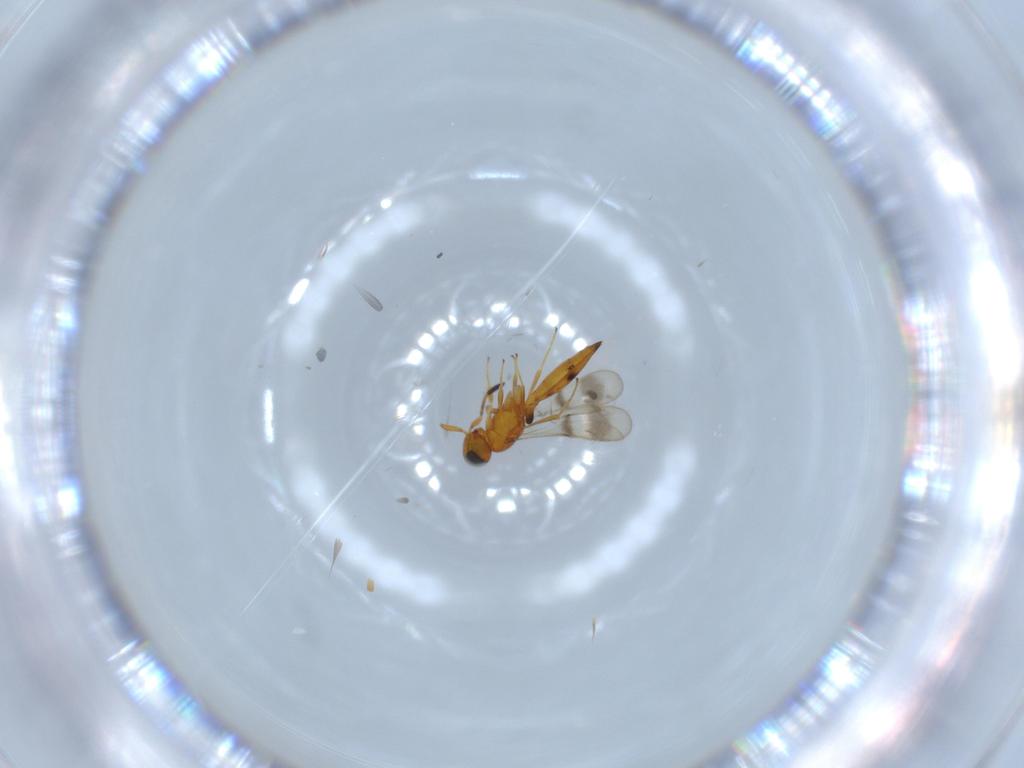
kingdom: Animalia
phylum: Arthropoda
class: Insecta
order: Hymenoptera
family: Scelionidae
